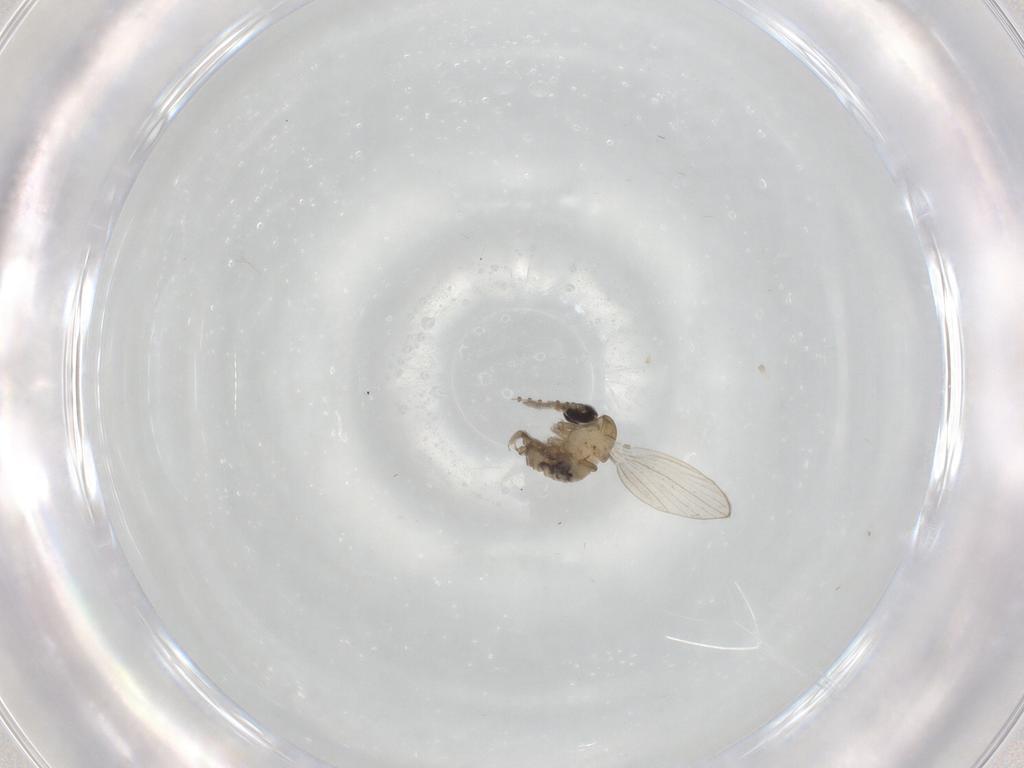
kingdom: Animalia
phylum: Arthropoda
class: Insecta
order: Diptera
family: Psychodidae
